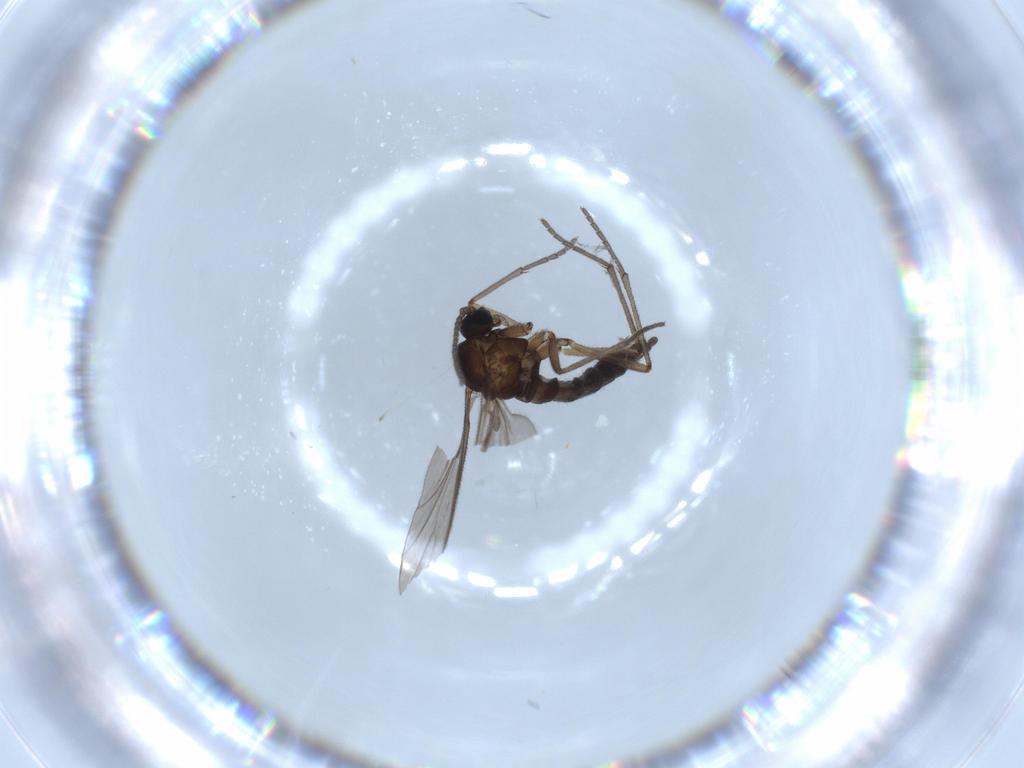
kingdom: Animalia
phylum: Arthropoda
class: Insecta
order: Diptera
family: Sciaridae
